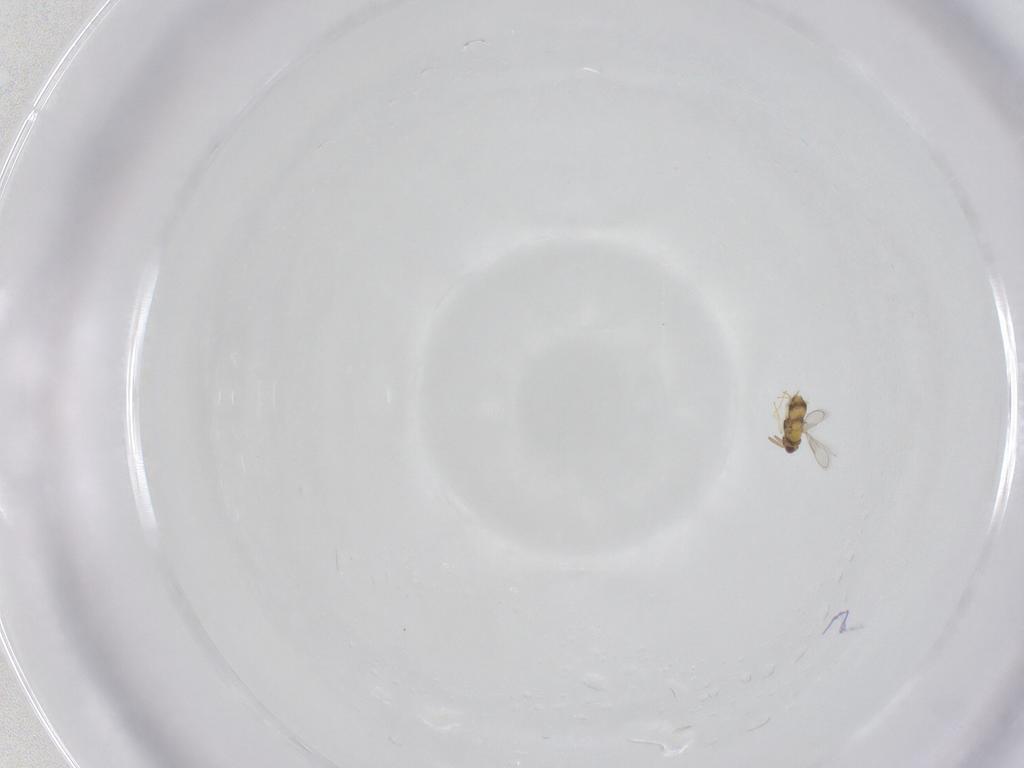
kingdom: Animalia
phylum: Arthropoda
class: Insecta
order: Hymenoptera
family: Aphelinidae
